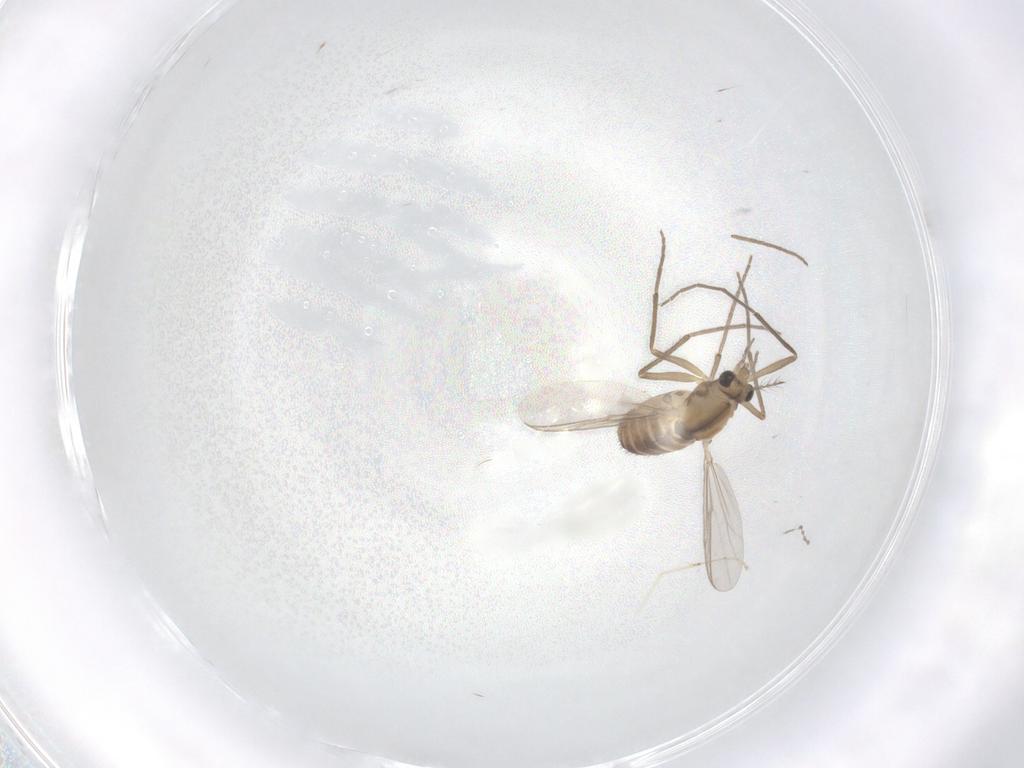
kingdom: Animalia
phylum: Arthropoda
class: Insecta
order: Diptera
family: Chironomidae
